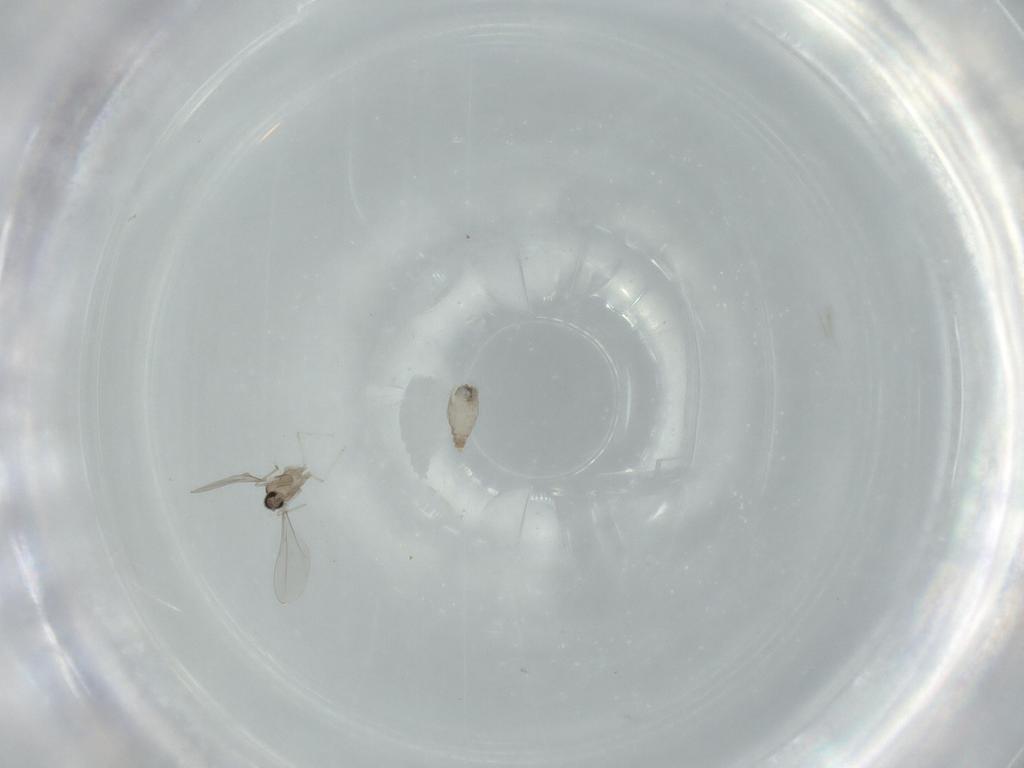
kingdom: Animalia
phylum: Arthropoda
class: Insecta
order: Diptera
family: Cecidomyiidae
